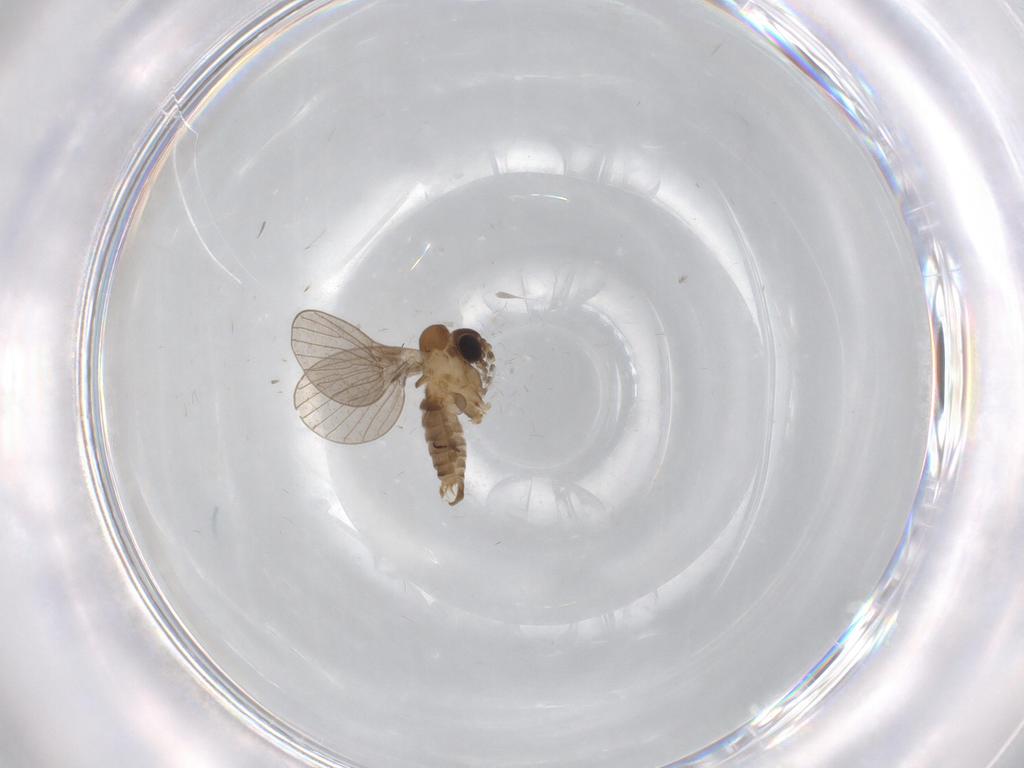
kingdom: Animalia
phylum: Arthropoda
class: Insecta
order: Diptera
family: Psychodidae
